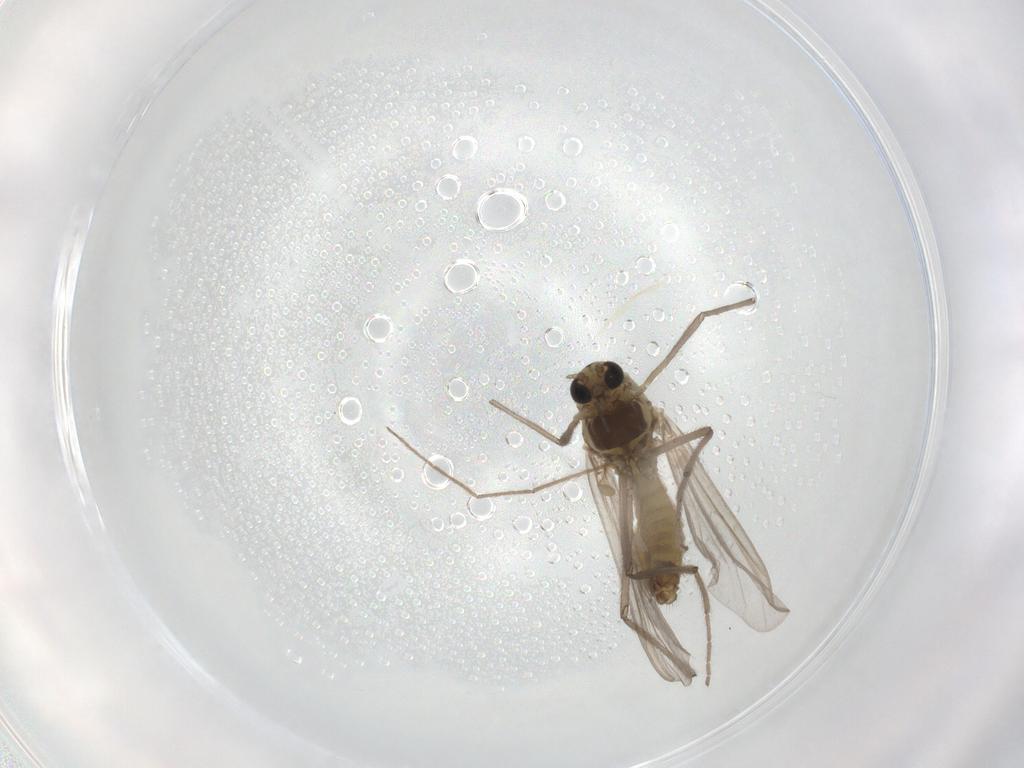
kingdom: Animalia
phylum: Arthropoda
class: Insecta
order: Diptera
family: Chironomidae
